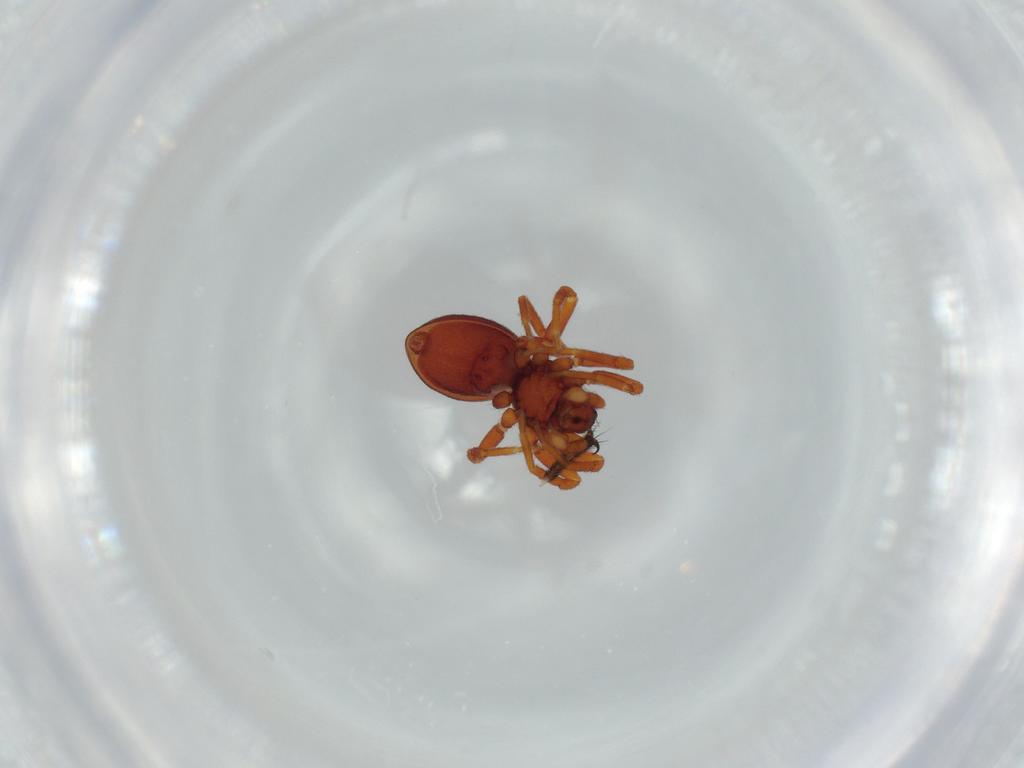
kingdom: Animalia
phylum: Arthropoda
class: Arachnida
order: Araneae
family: Oonopidae
